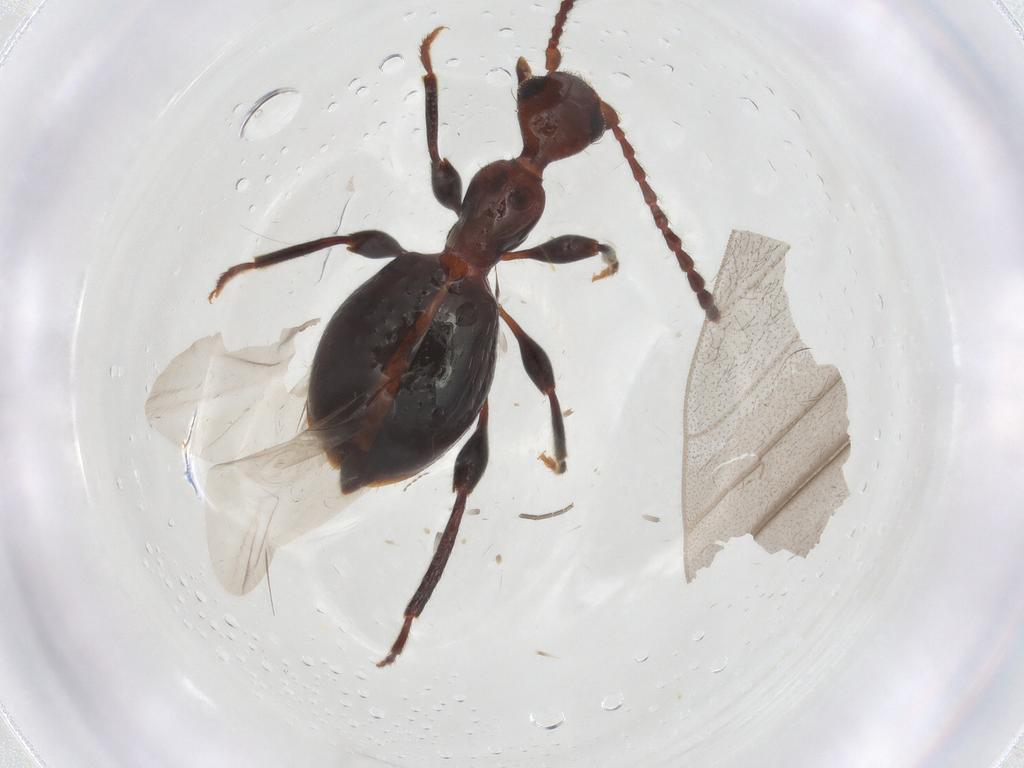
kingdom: Animalia
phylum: Arthropoda
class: Insecta
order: Coleoptera
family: Anthicidae
